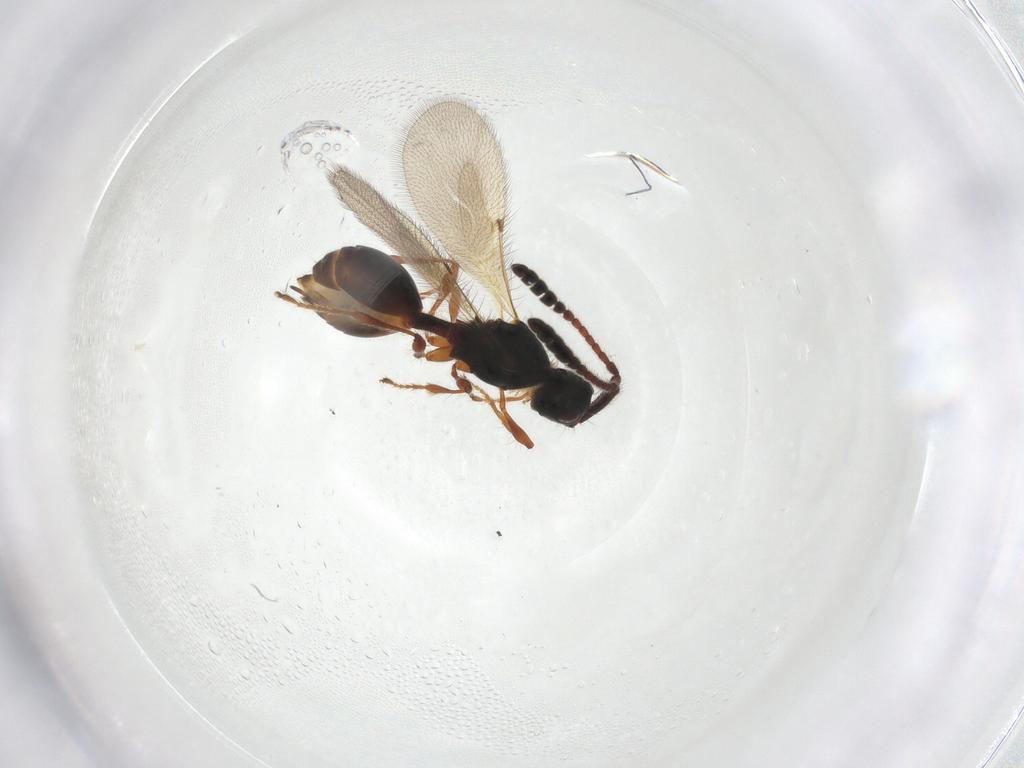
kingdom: Animalia
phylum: Arthropoda
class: Insecta
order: Hymenoptera
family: Diapriidae
